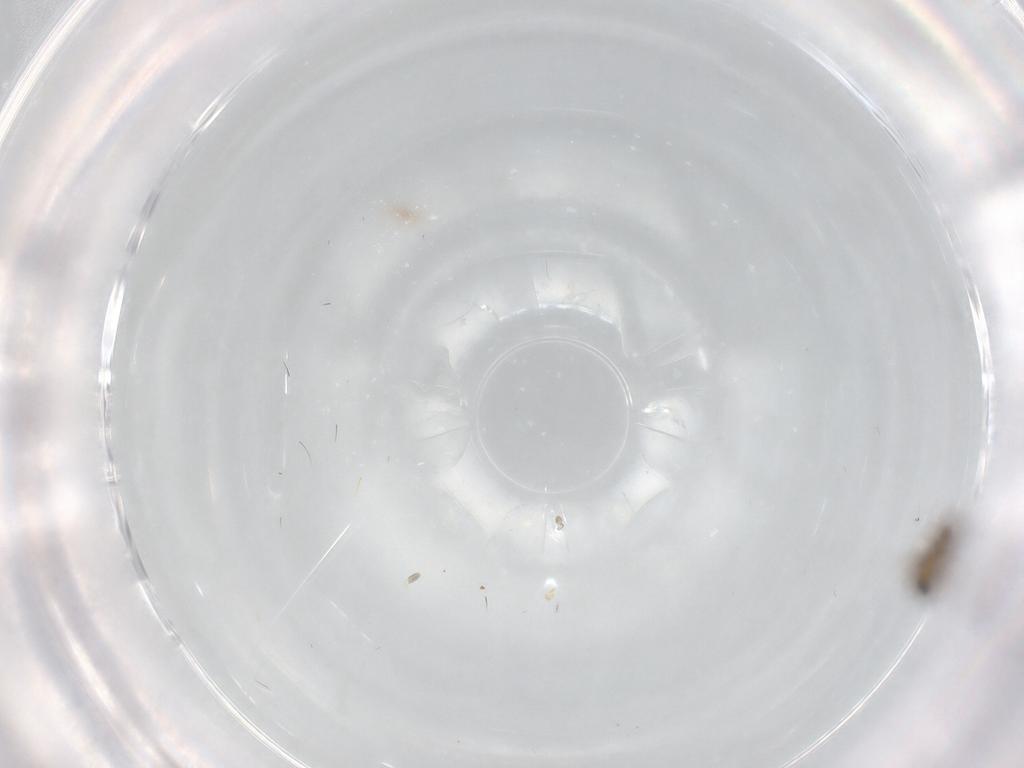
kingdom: Animalia
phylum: Arthropoda
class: Insecta
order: Diptera
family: Psychodidae
